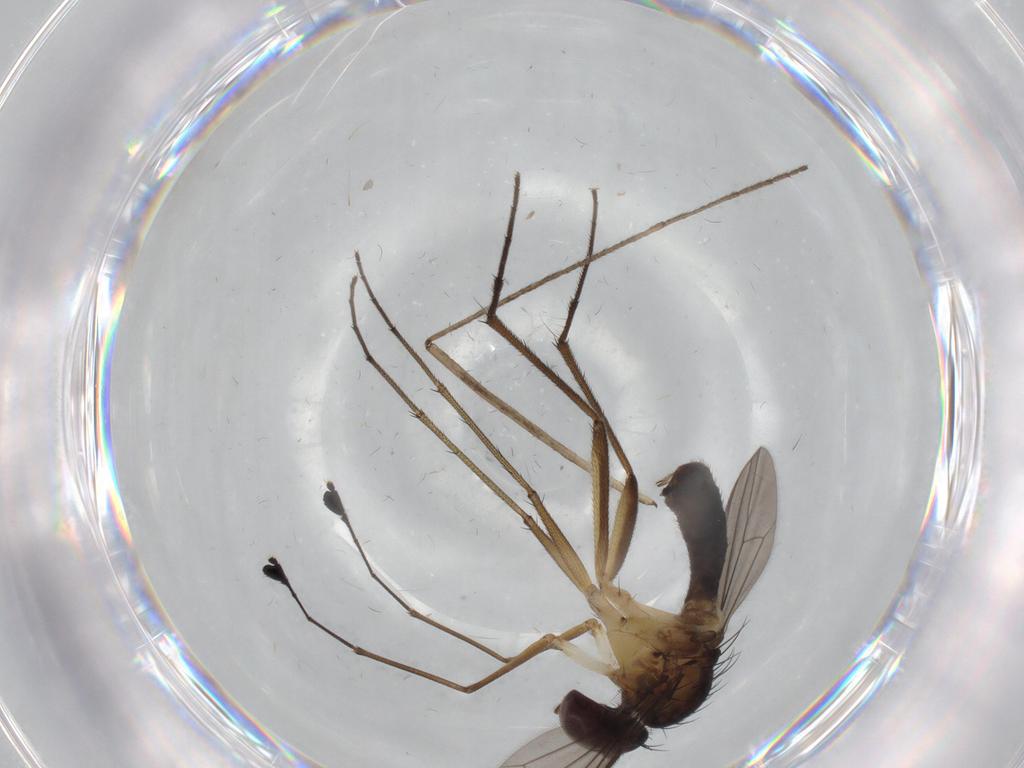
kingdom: Animalia
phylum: Arthropoda
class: Insecta
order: Diptera
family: Dolichopodidae
